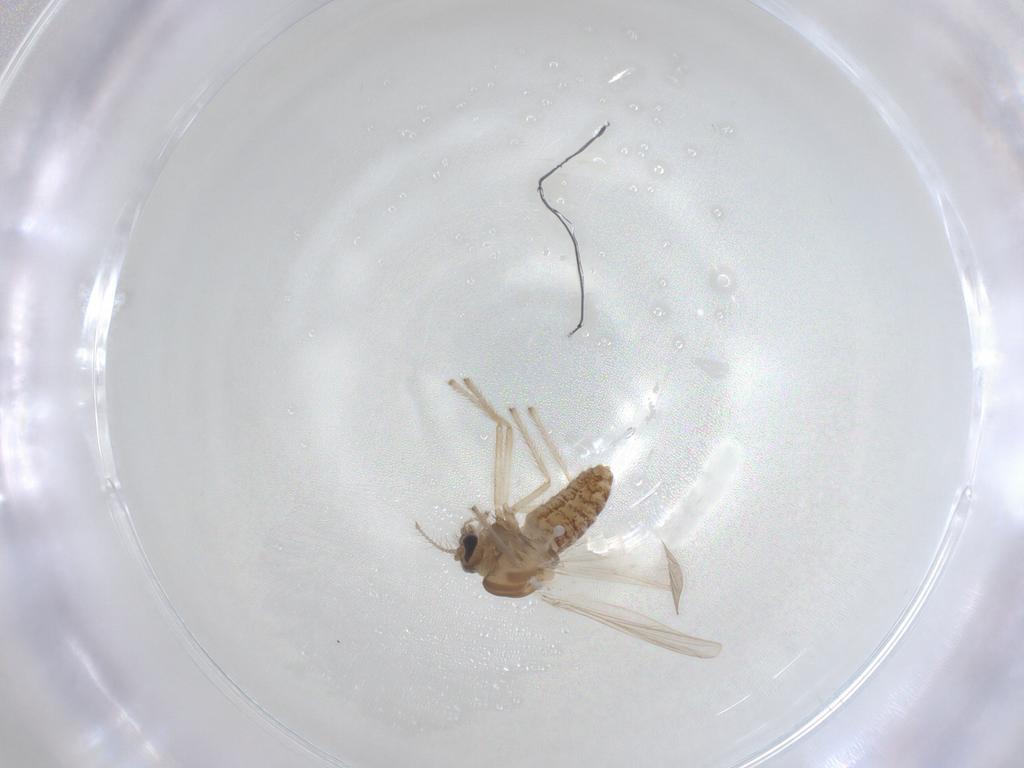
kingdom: Animalia
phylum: Arthropoda
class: Insecta
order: Diptera
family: Chironomidae
